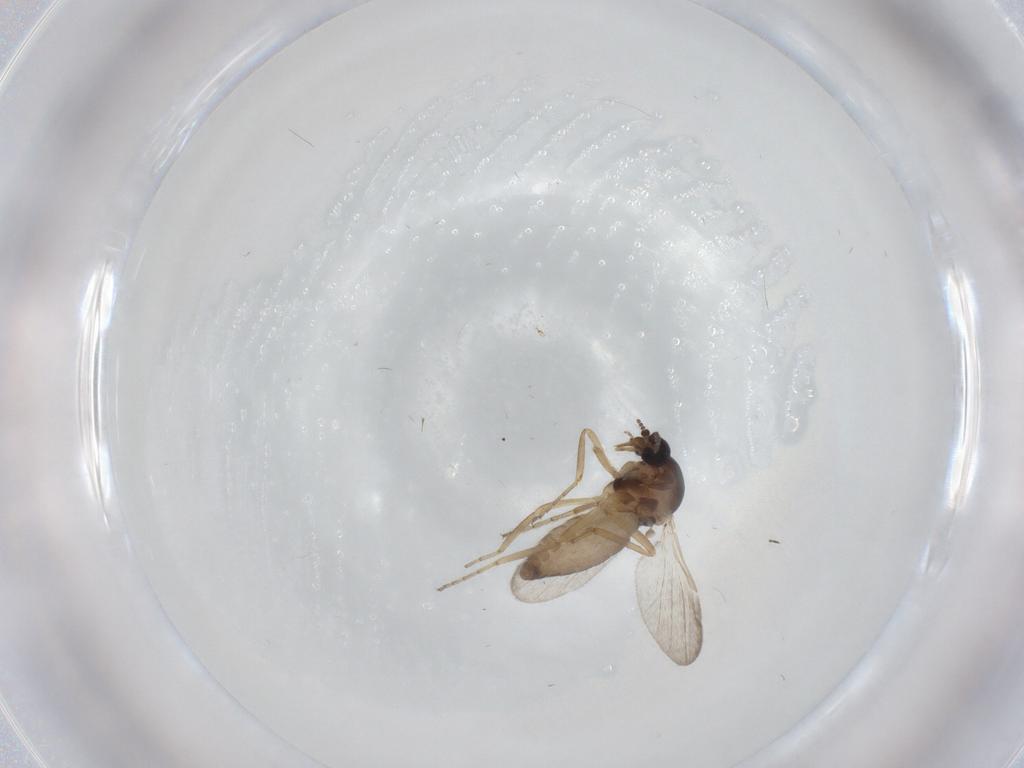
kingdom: Animalia
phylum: Arthropoda
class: Insecta
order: Diptera
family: Ceratopogonidae
